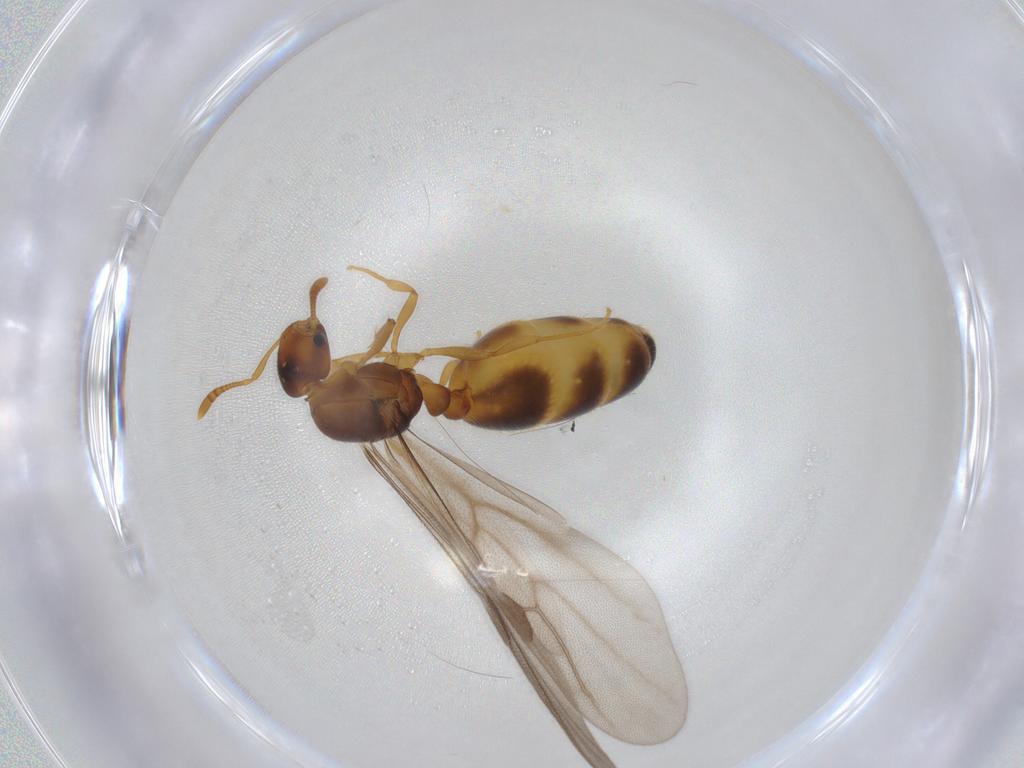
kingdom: Animalia
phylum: Arthropoda
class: Insecta
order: Hymenoptera
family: Formicidae
